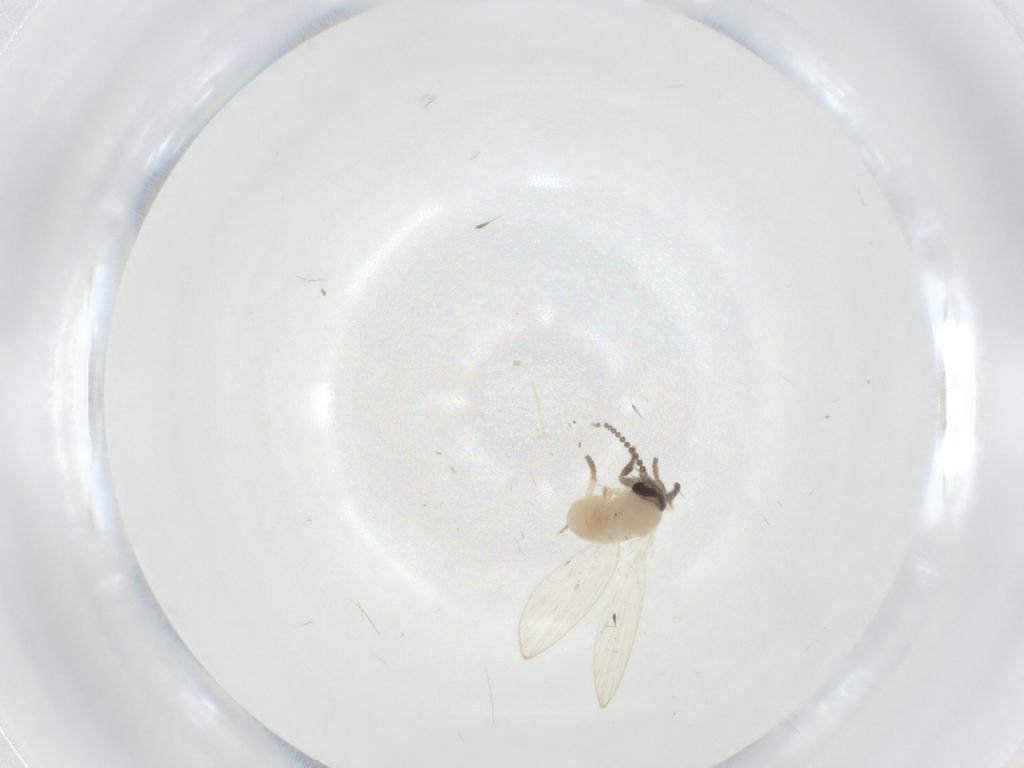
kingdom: Animalia
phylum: Arthropoda
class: Insecta
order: Diptera
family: Psychodidae
